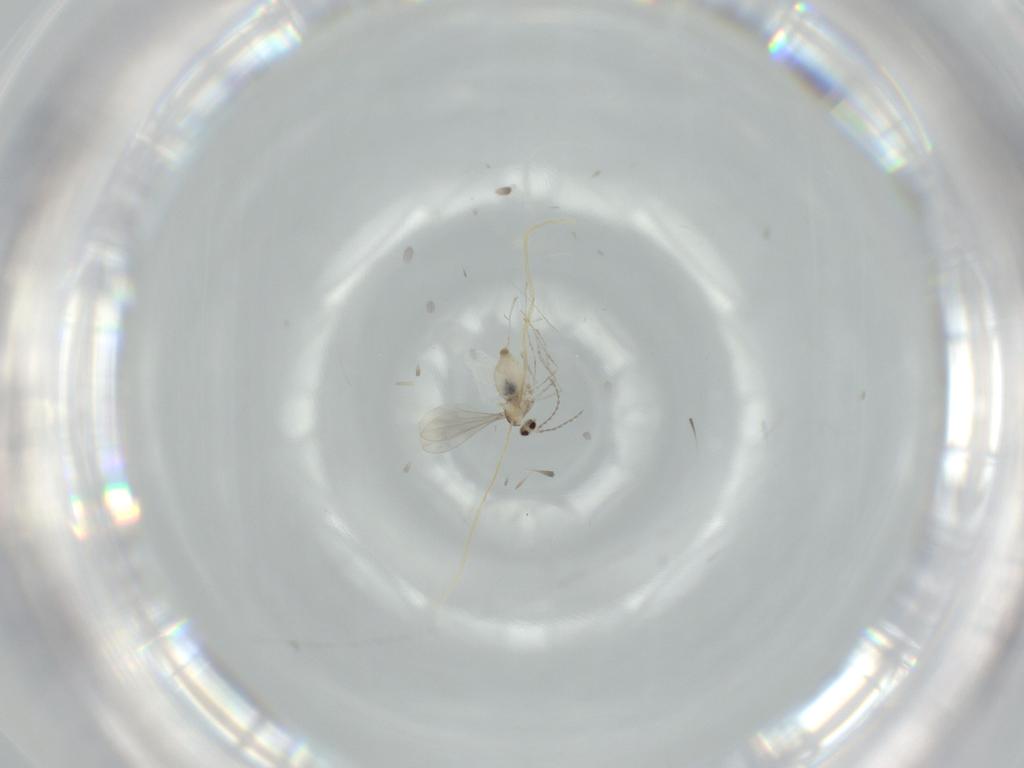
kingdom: Animalia
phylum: Arthropoda
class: Insecta
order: Diptera
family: Cecidomyiidae
